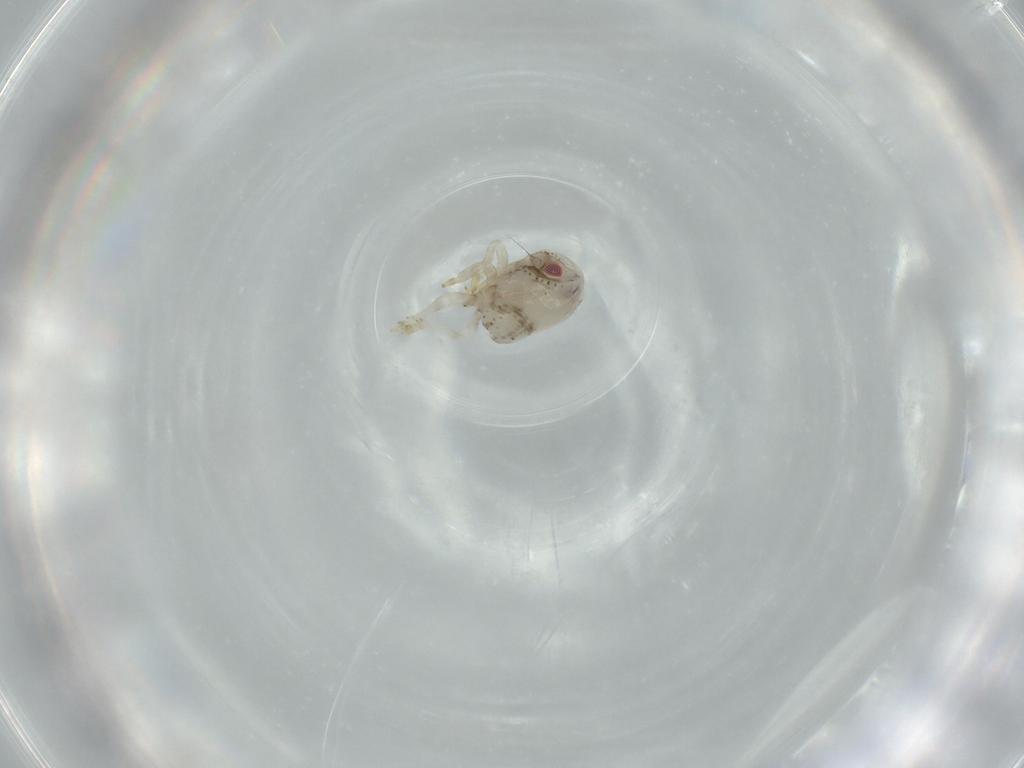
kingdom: Animalia
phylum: Arthropoda
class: Insecta
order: Hemiptera
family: Acanaloniidae
